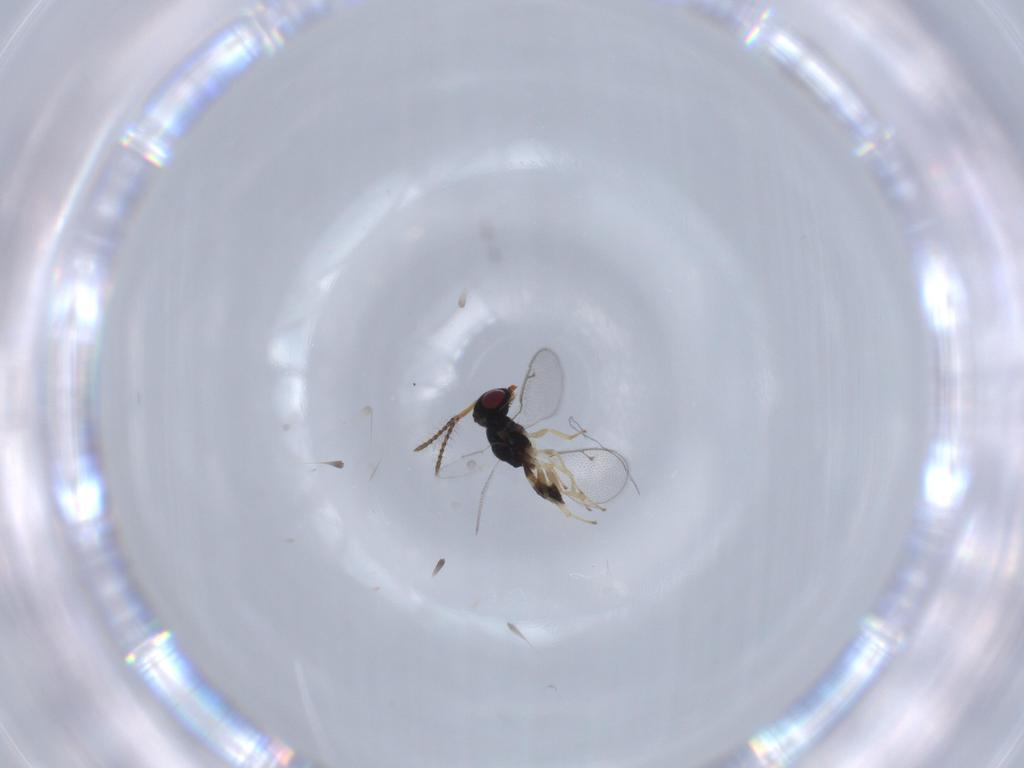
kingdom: Animalia
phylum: Arthropoda
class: Insecta
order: Hymenoptera
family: Pteromalidae
